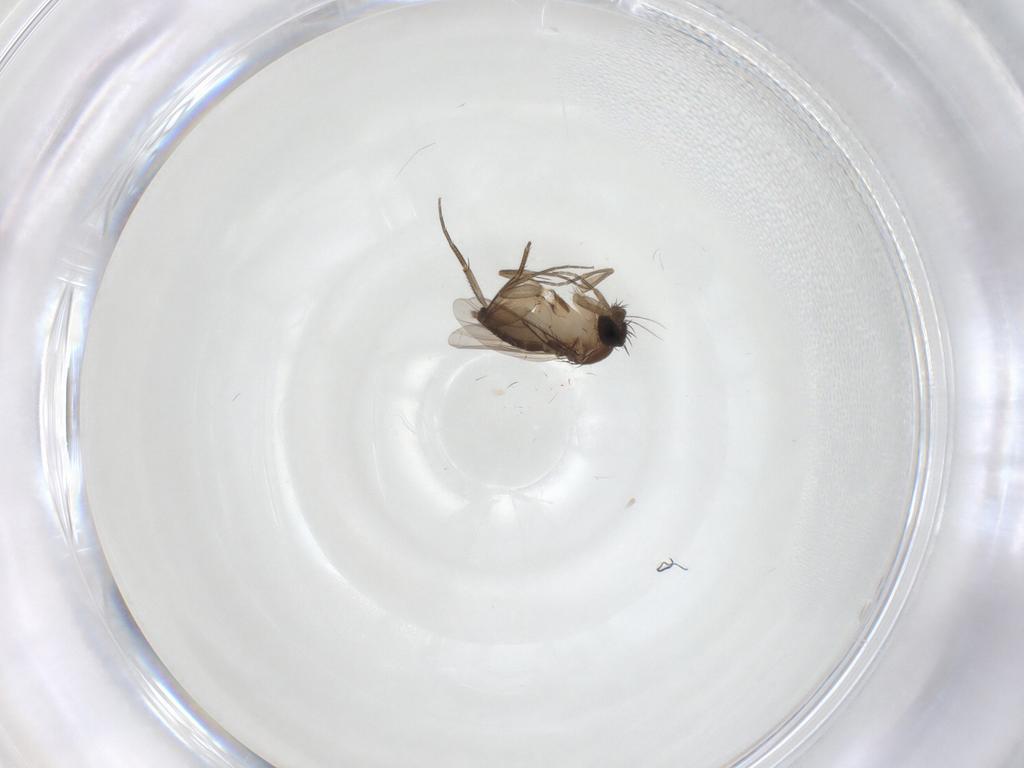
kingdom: Animalia
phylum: Arthropoda
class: Insecta
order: Diptera
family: Phoridae
